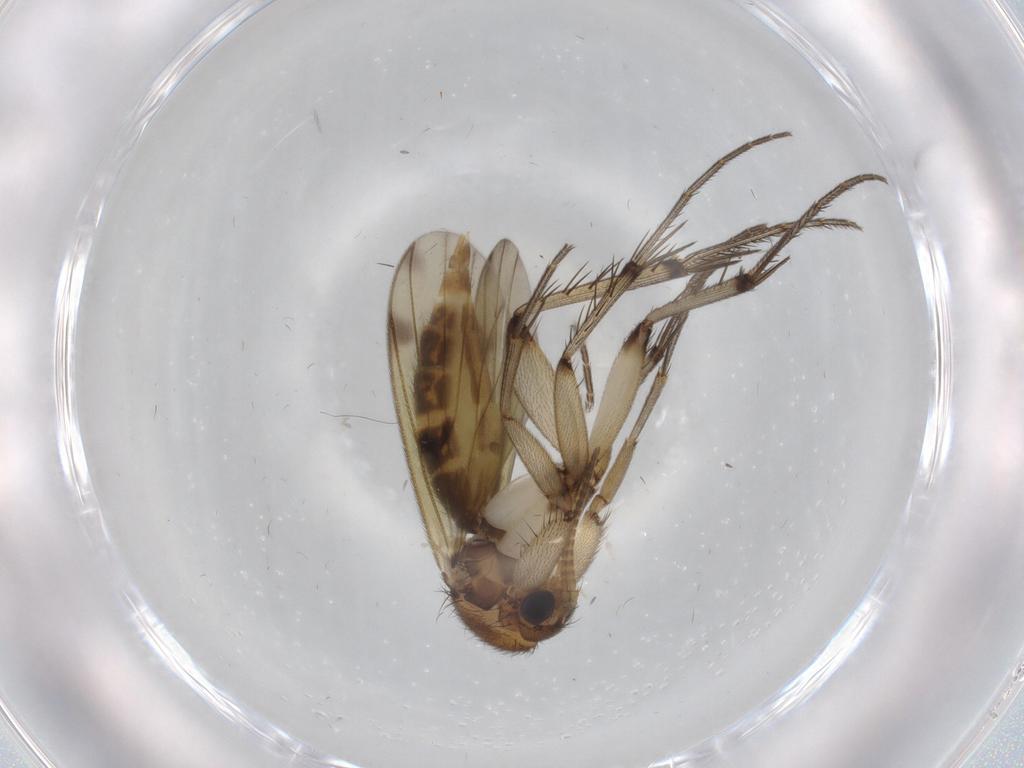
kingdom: Animalia
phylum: Arthropoda
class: Insecta
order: Diptera
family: Mycetophilidae
